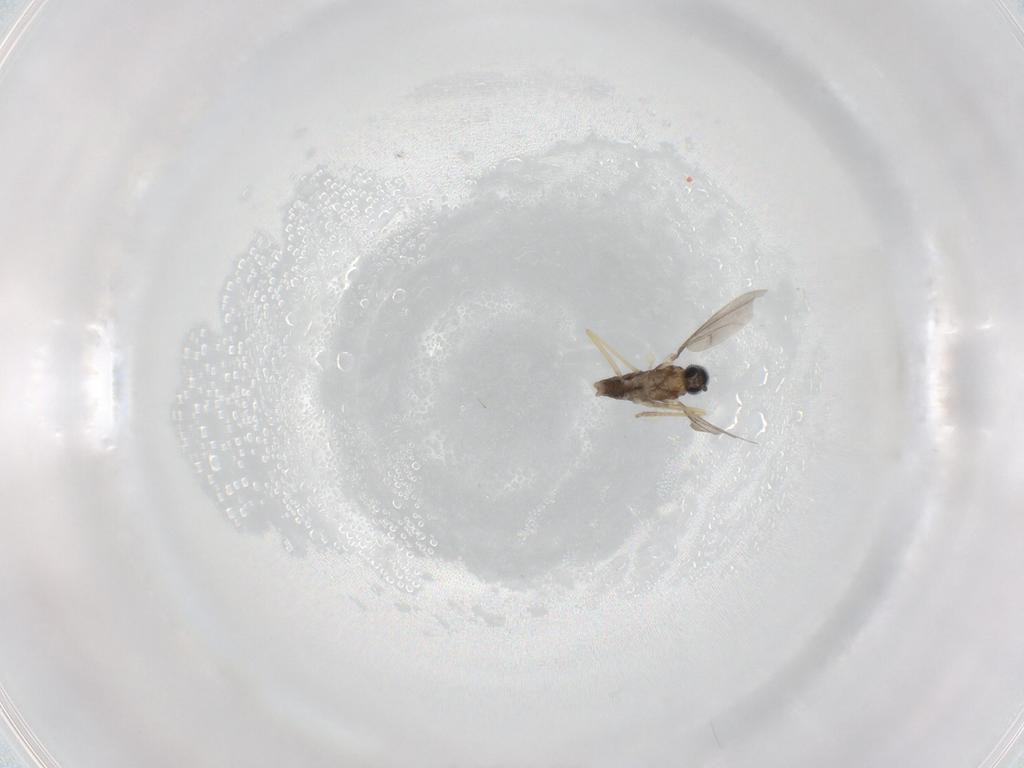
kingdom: Animalia
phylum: Arthropoda
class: Insecta
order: Diptera
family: Cecidomyiidae
